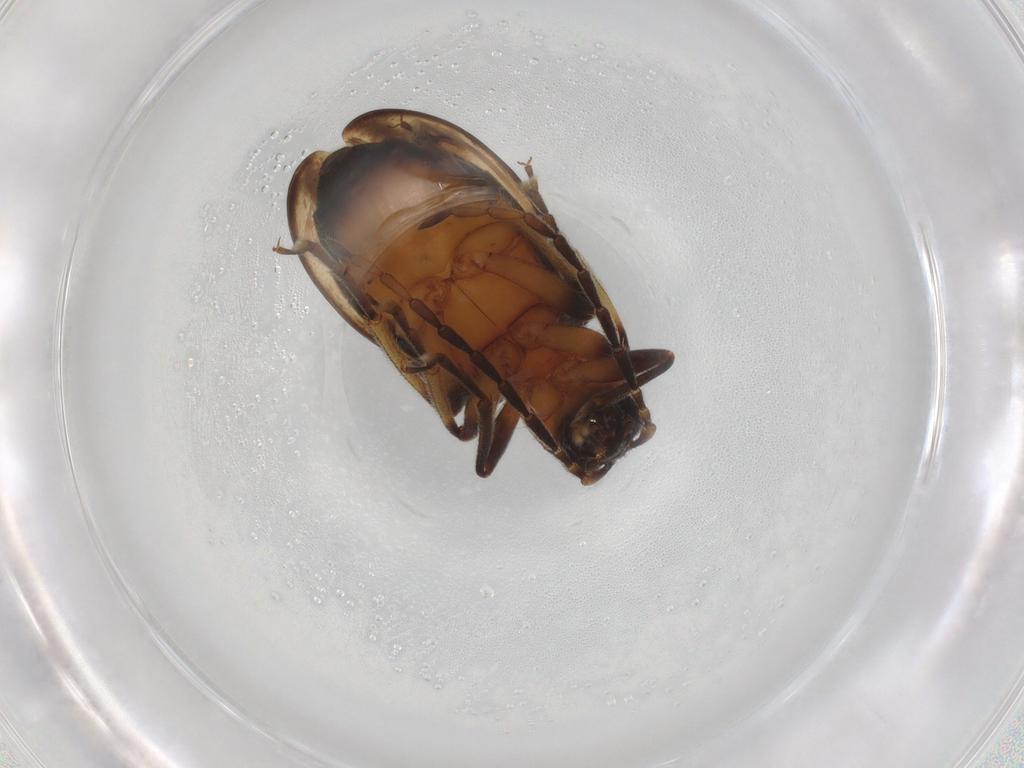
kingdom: Animalia
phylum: Arthropoda
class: Insecta
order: Coleoptera
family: Chrysomelidae
